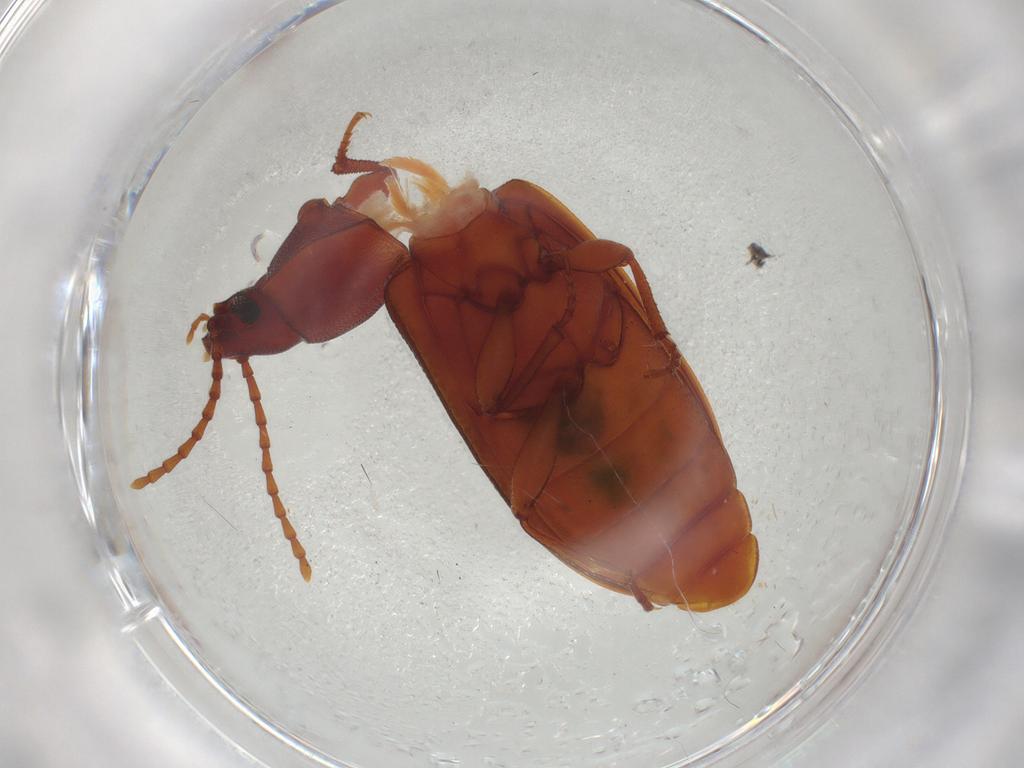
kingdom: Animalia
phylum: Arthropoda
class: Insecta
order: Coleoptera
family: Tenebrionidae
